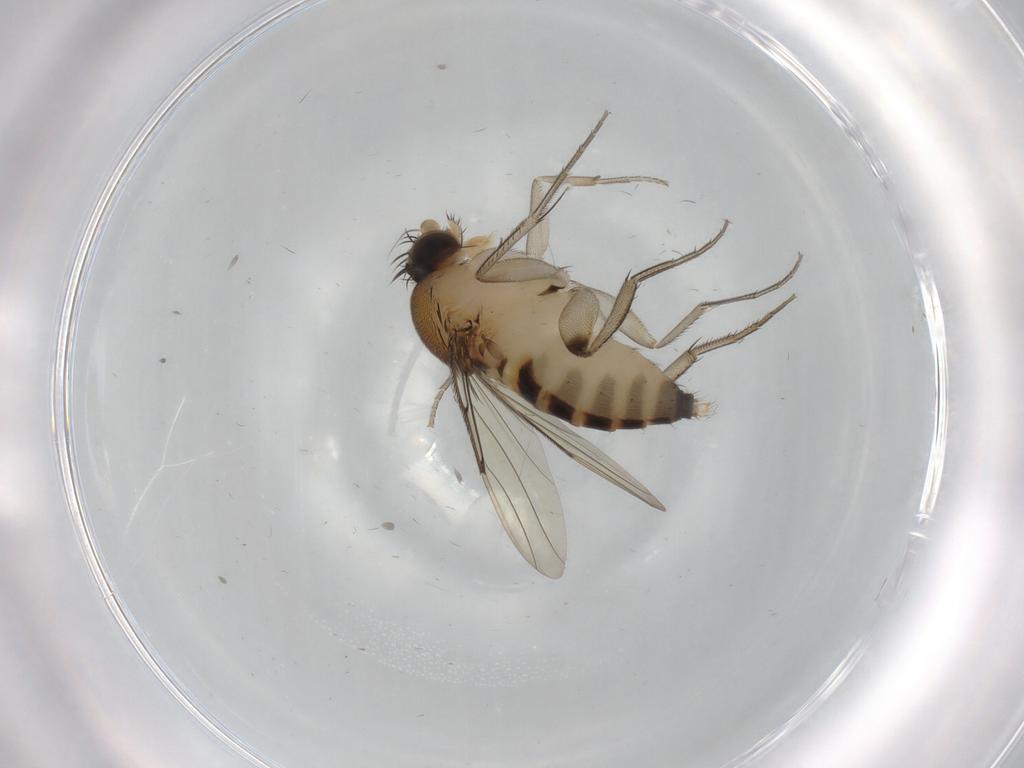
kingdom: Animalia
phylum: Arthropoda
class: Insecta
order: Diptera
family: Phoridae
